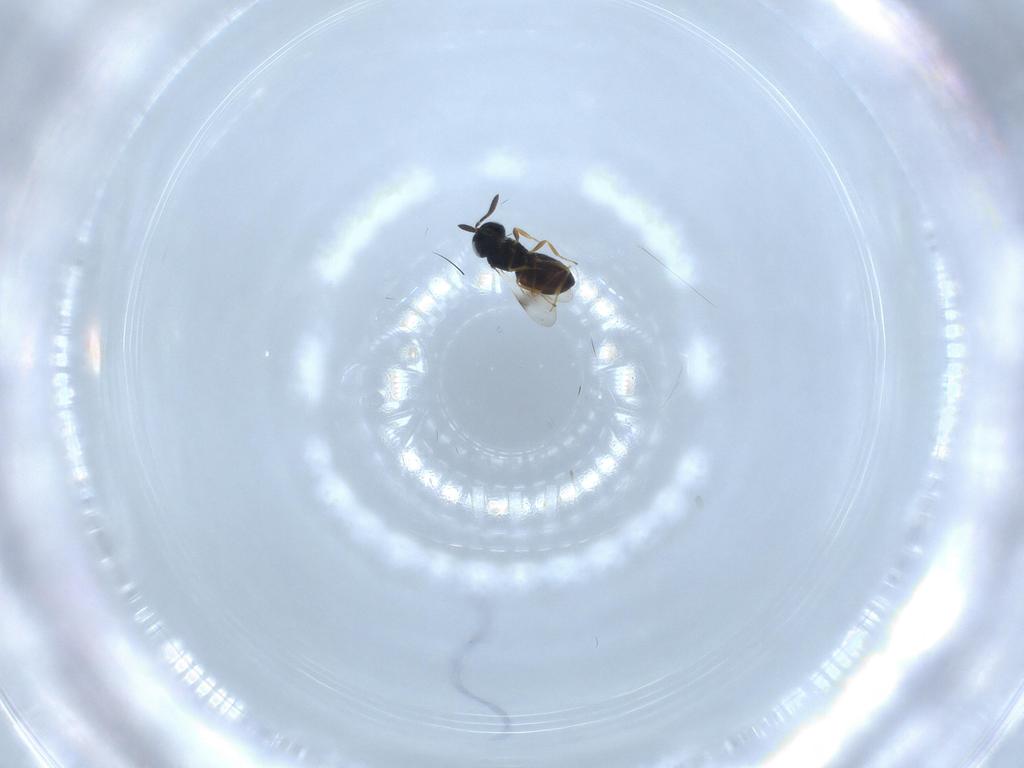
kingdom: Animalia
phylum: Arthropoda
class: Insecta
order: Hymenoptera
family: Scelionidae
